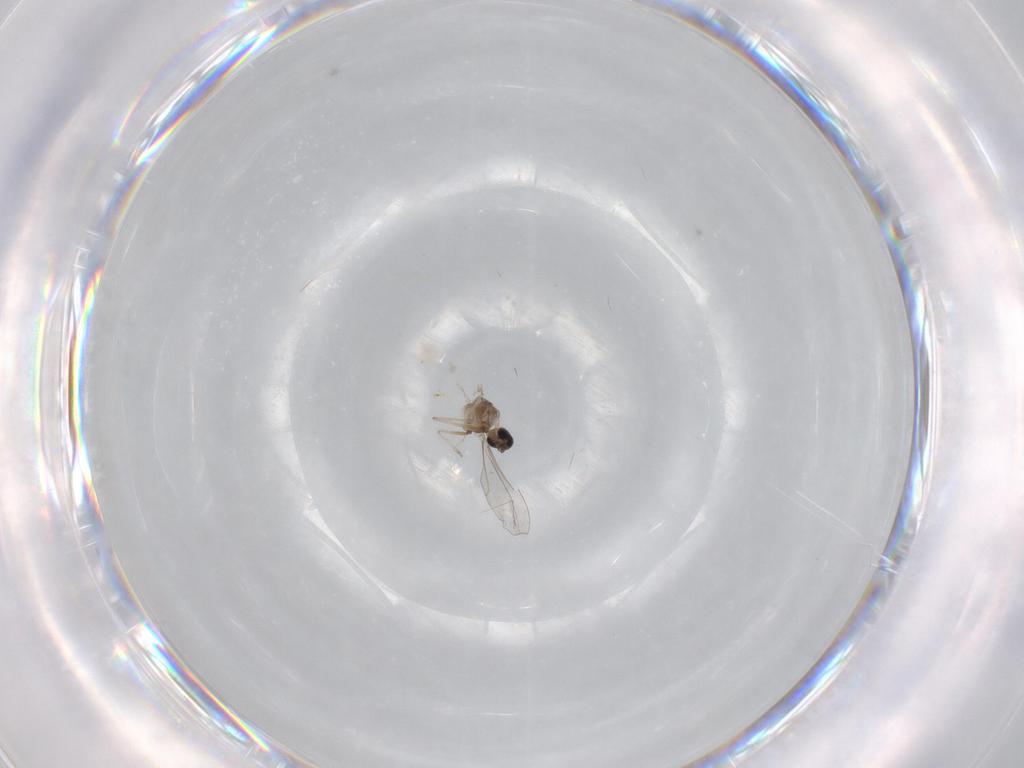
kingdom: Animalia
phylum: Arthropoda
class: Insecta
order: Diptera
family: Cecidomyiidae
